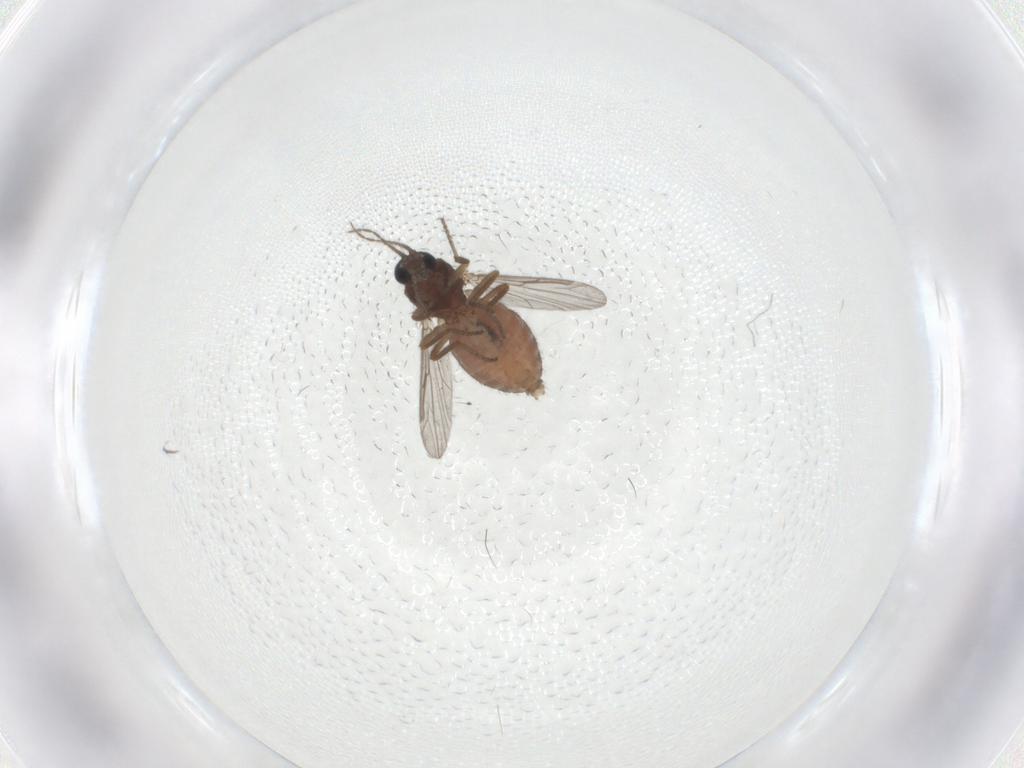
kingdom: Animalia
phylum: Arthropoda
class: Insecta
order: Diptera
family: Ceratopogonidae
